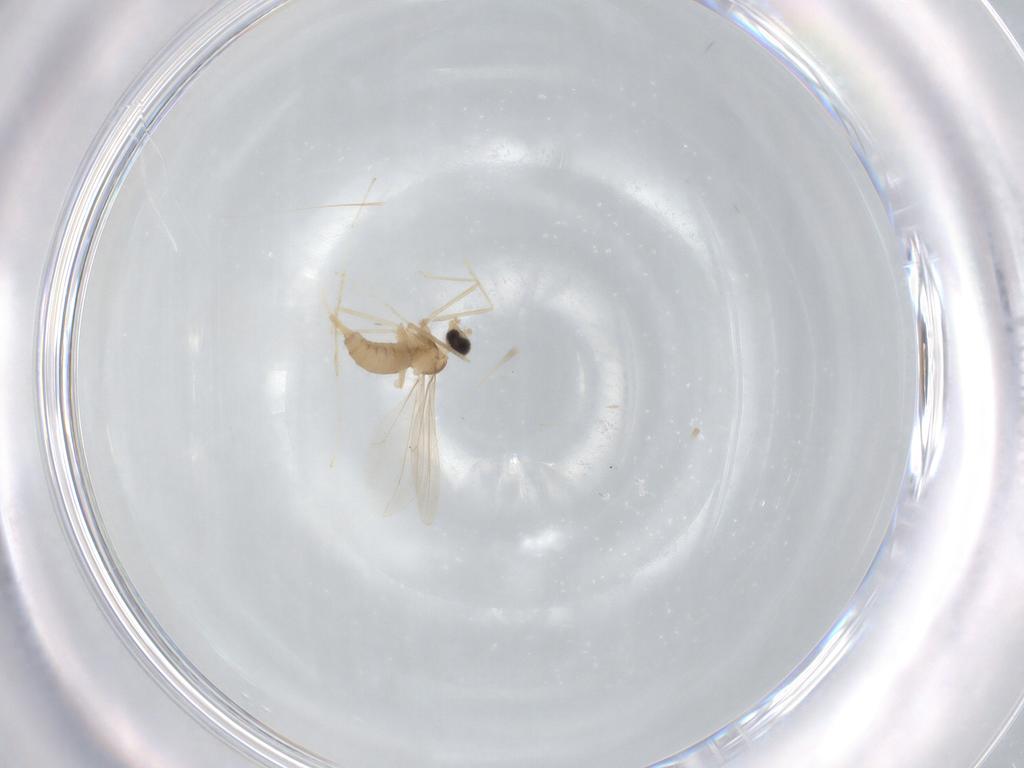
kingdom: Animalia
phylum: Arthropoda
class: Insecta
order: Diptera
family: Cecidomyiidae
